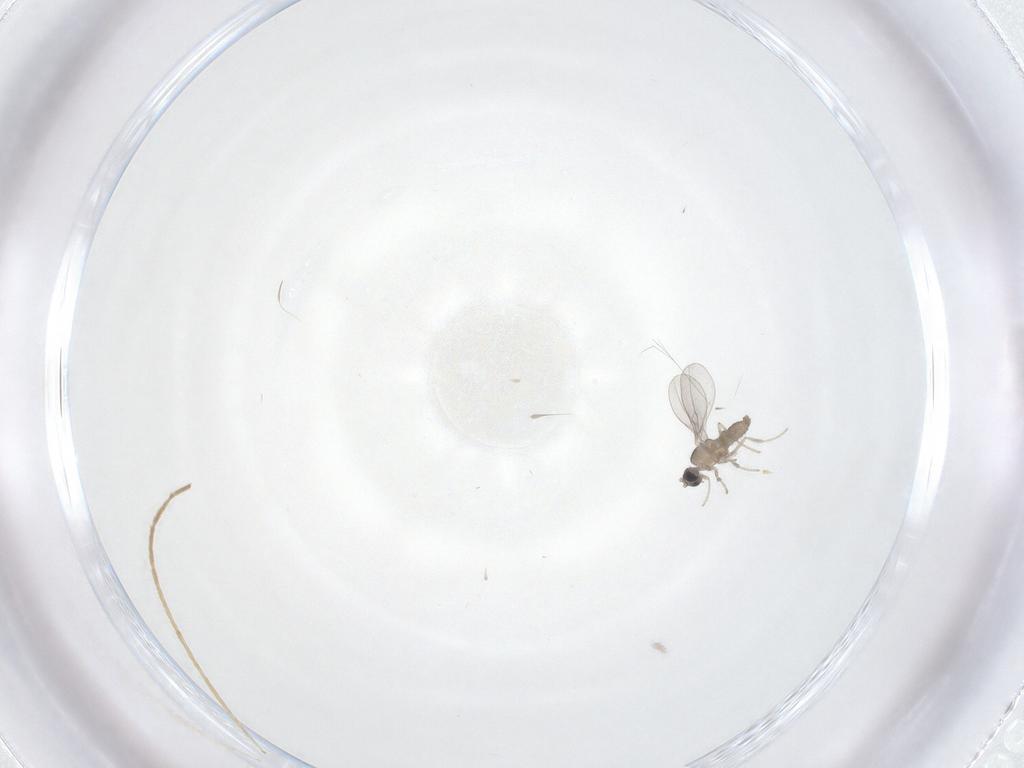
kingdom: Animalia
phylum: Arthropoda
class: Insecta
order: Diptera
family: Chironomidae
